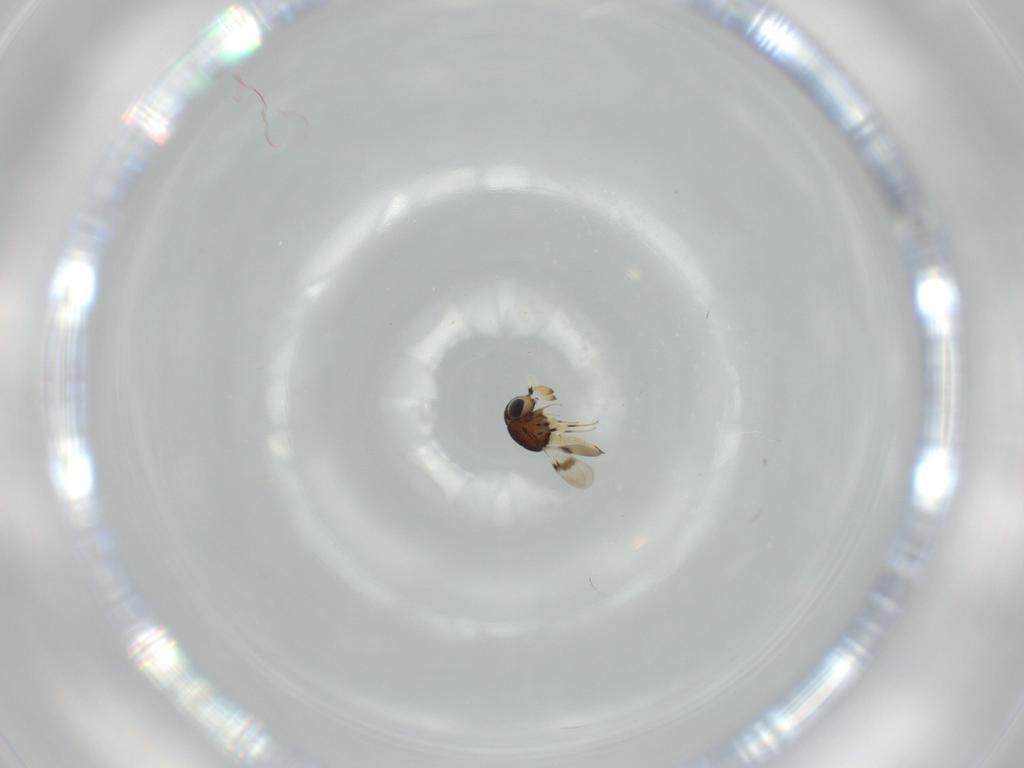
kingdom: Animalia
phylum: Arthropoda
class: Insecta
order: Hymenoptera
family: Scelionidae
